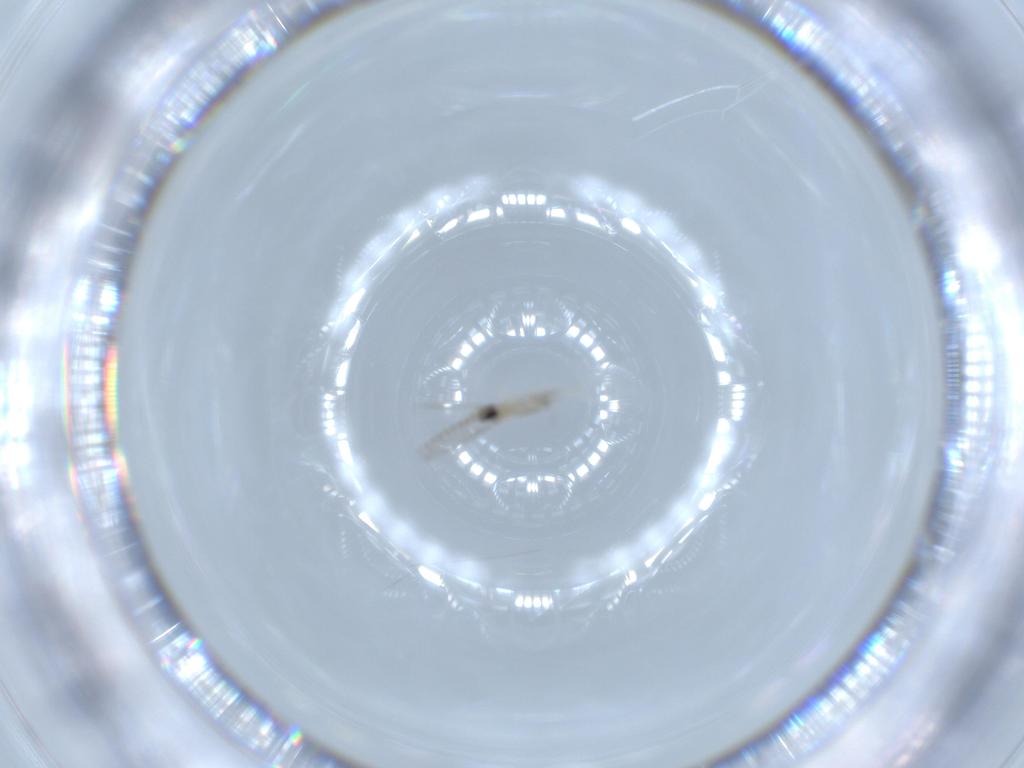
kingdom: Animalia
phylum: Arthropoda
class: Insecta
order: Diptera
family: Cecidomyiidae
